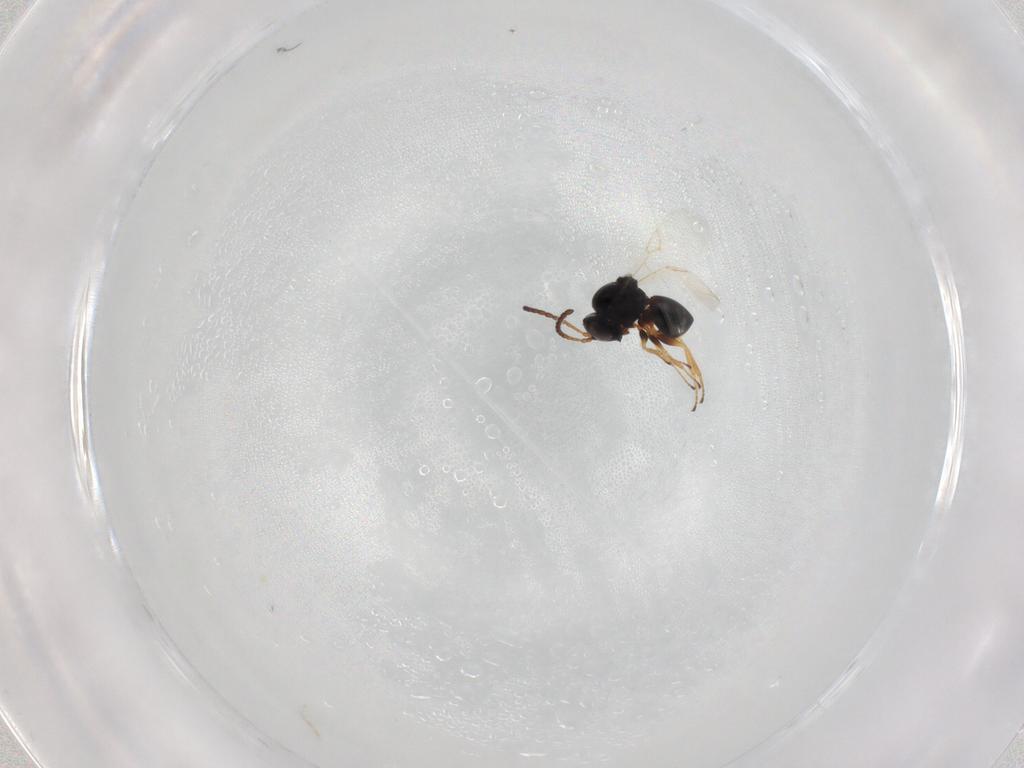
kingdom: Animalia
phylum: Arthropoda
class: Insecta
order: Hymenoptera
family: Figitidae
